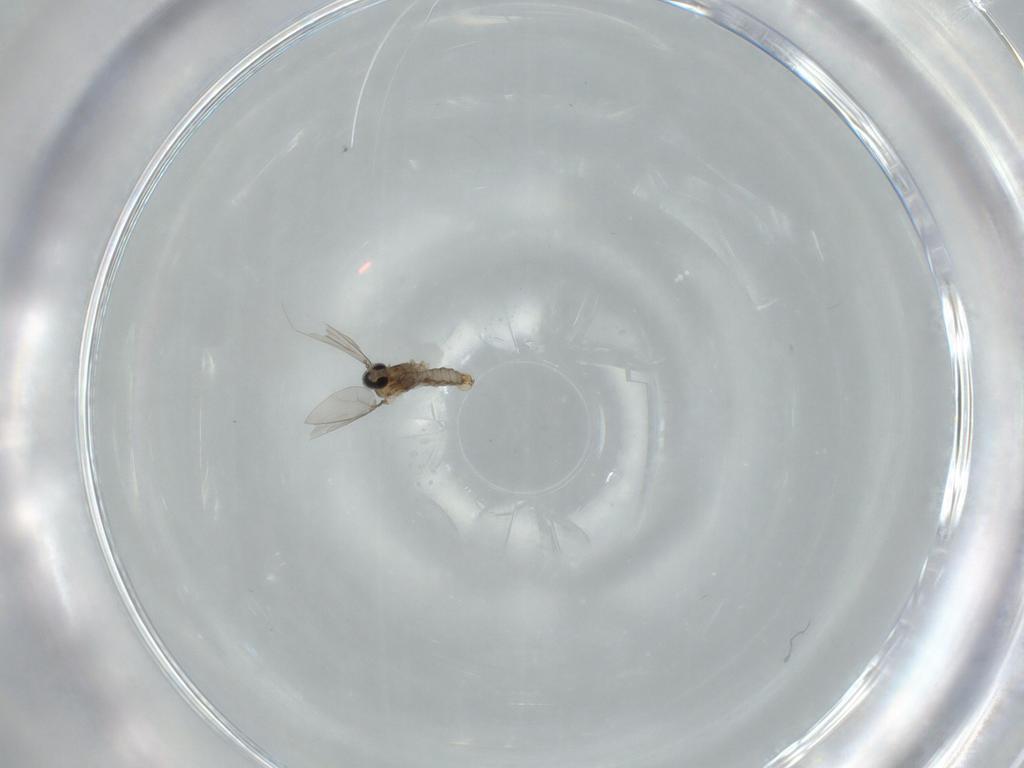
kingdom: Animalia
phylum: Arthropoda
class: Insecta
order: Diptera
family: Cecidomyiidae
